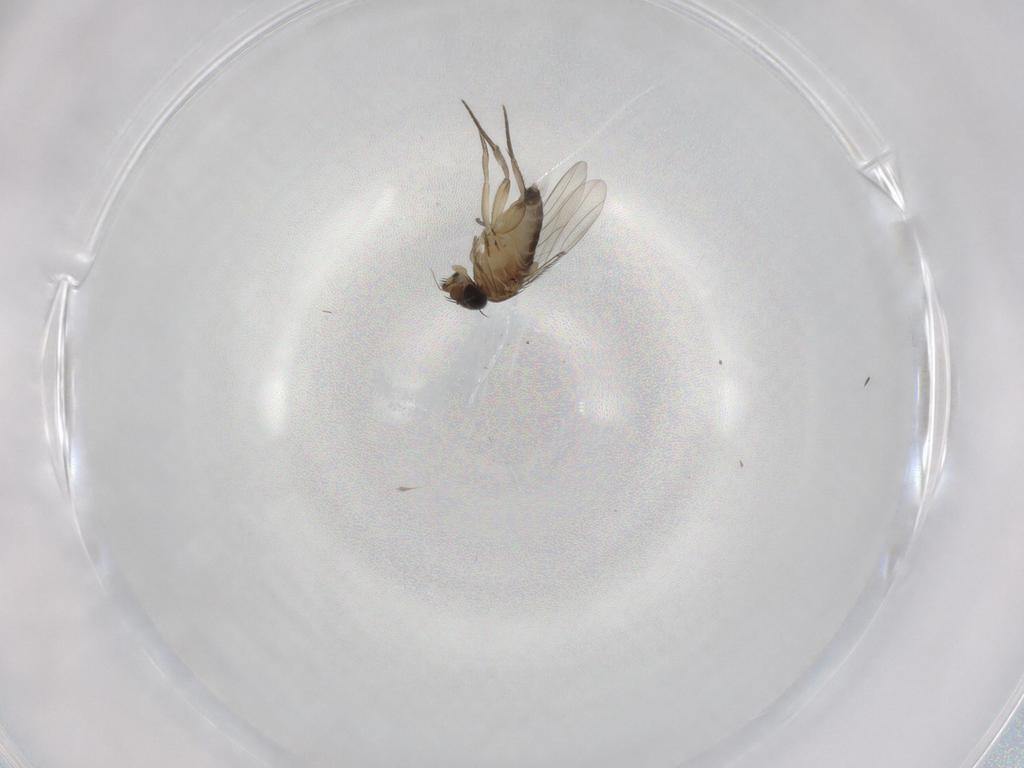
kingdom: Animalia
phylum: Arthropoda
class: Insecta
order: Diptera
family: Phoridae
